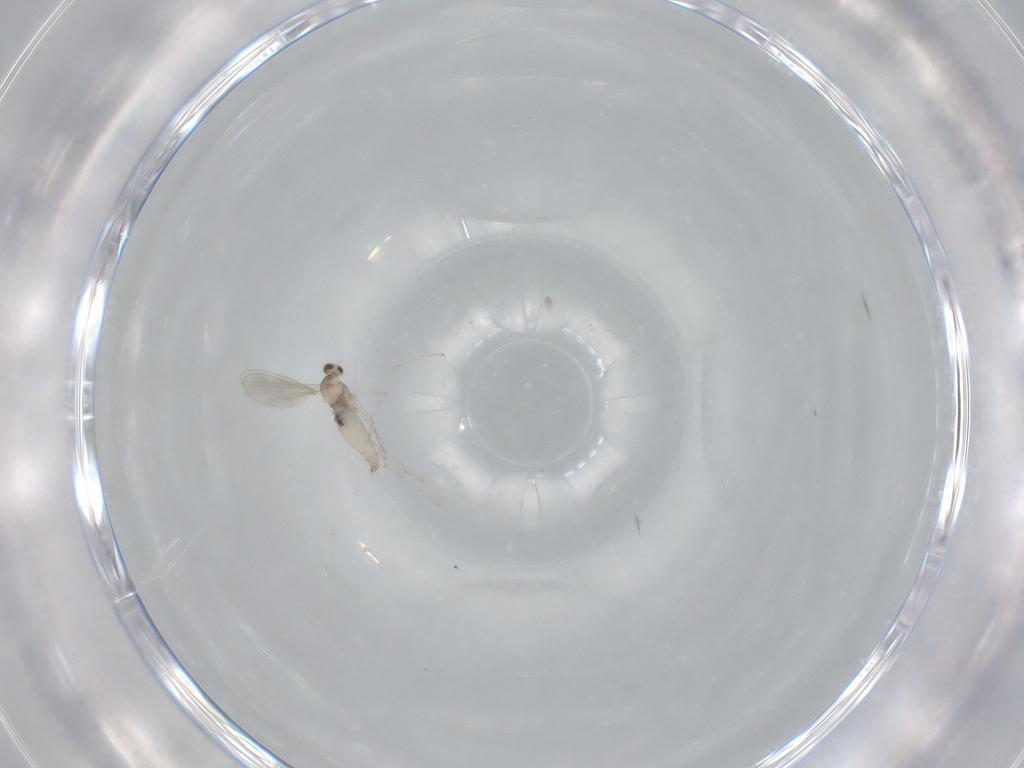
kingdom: Animalia
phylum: Arthropoda
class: Insecta
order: Diptera
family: Cecidomyiidae
